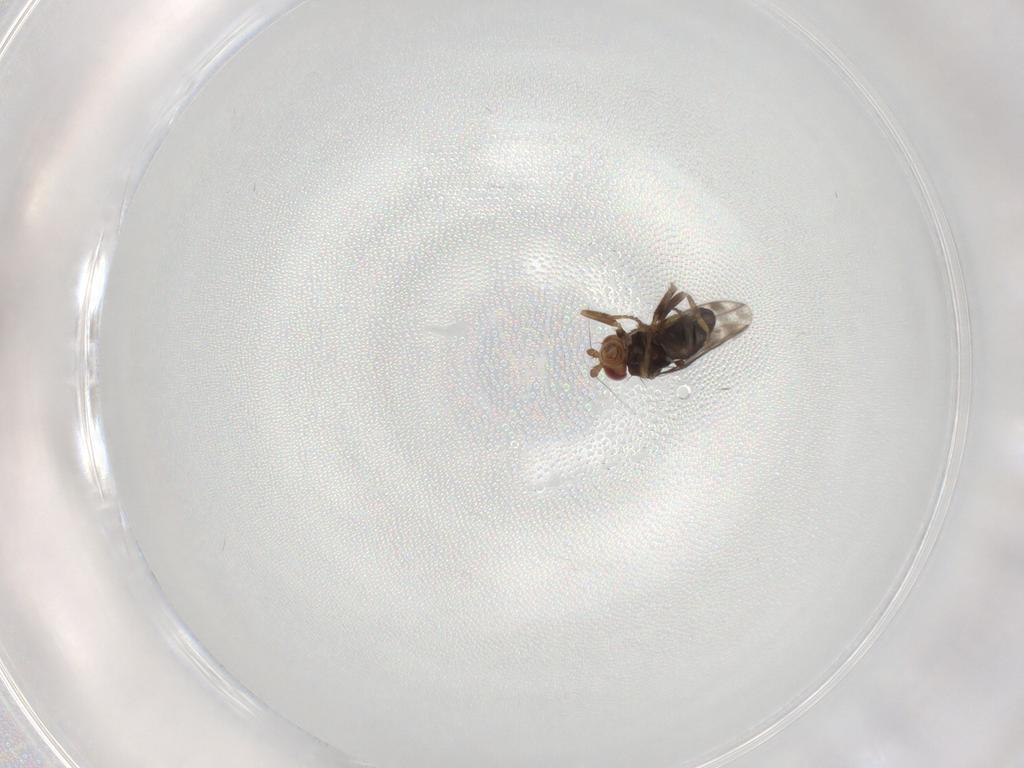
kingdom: Animalia
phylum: Arthropoda
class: Insecta
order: Diptera
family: Cecidomyiidae
